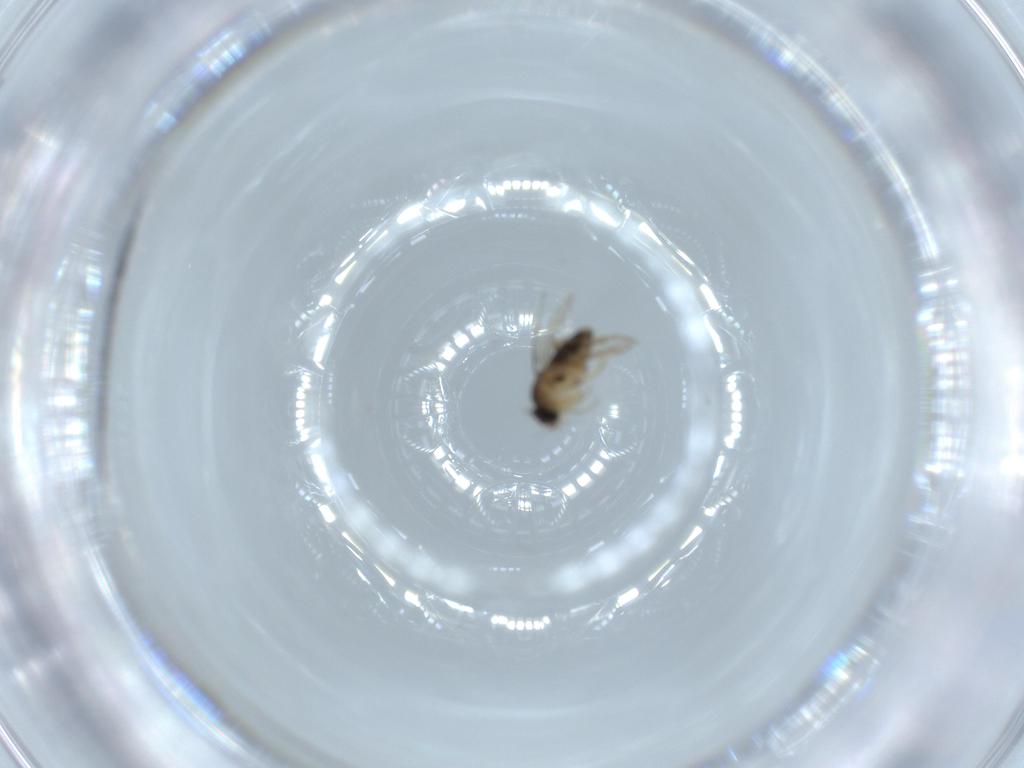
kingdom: Animalia
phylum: Arthropoda
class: Insecta
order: Diptera
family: Phoridae
